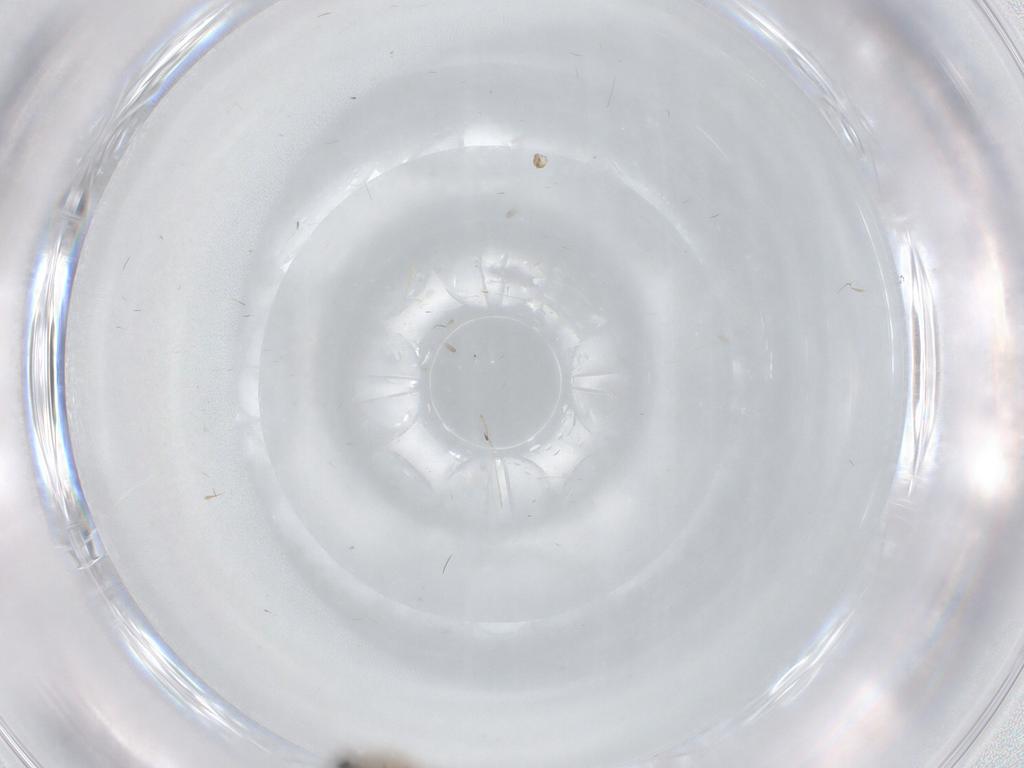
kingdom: Animalia
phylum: Arthropoda
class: Insecta
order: Diptera
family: Cecidomyiidae
